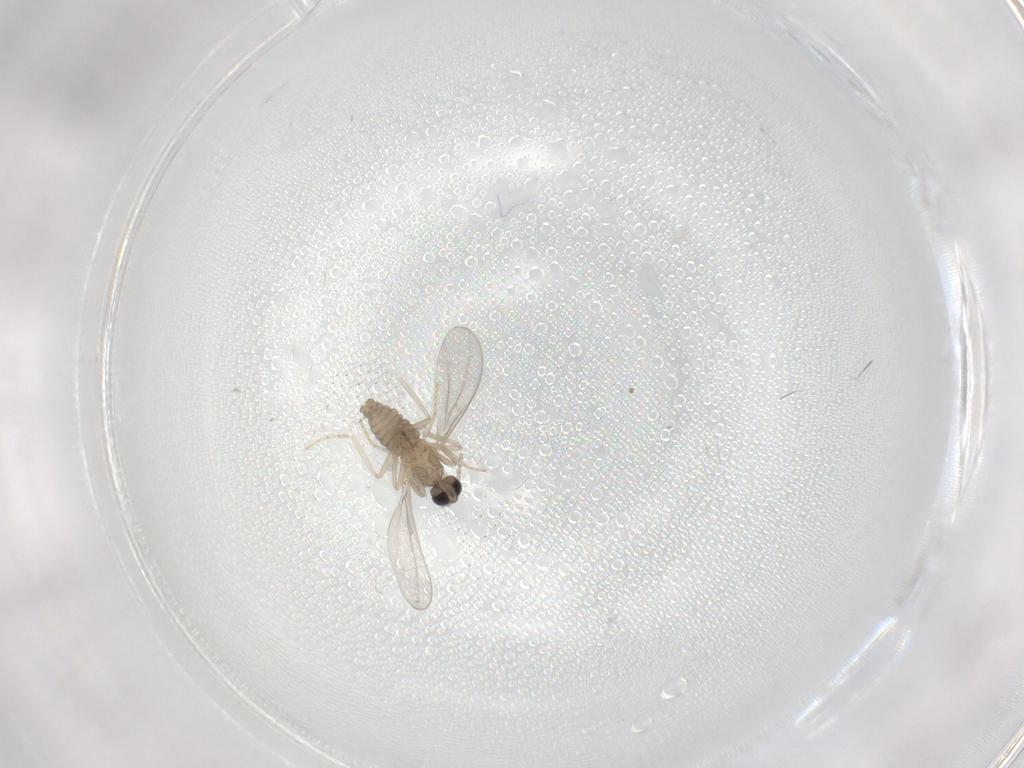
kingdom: Animalia
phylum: Arthropoda
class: Insecta
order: Diptera
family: Cecidomyiidae
